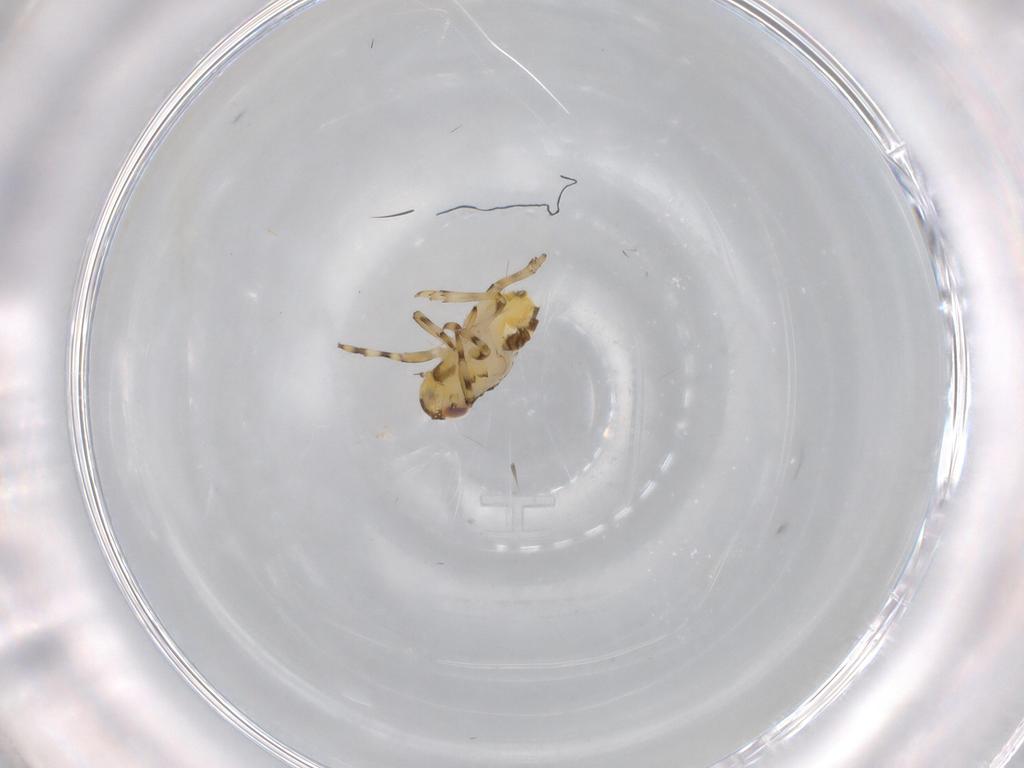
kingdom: Animalia
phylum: Arthropoda
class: Insecta
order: Hemiptera
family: Issidae
